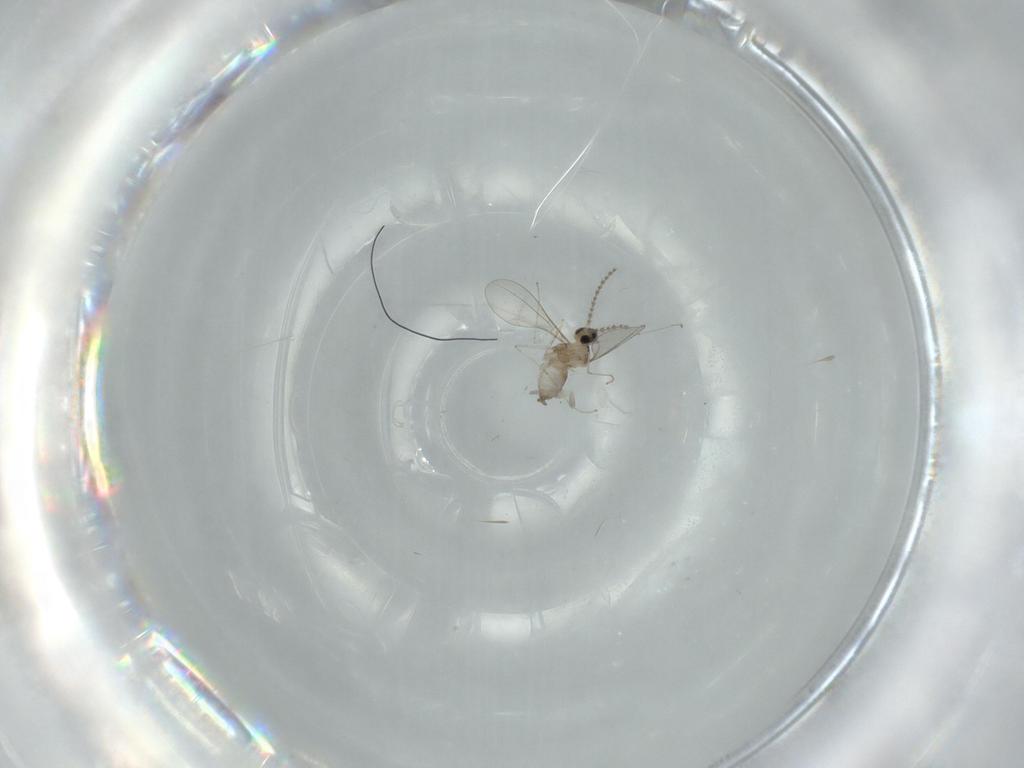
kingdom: Animalia
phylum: Arthropoda
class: Insecta
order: Diptera
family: Cecidomyiidae
